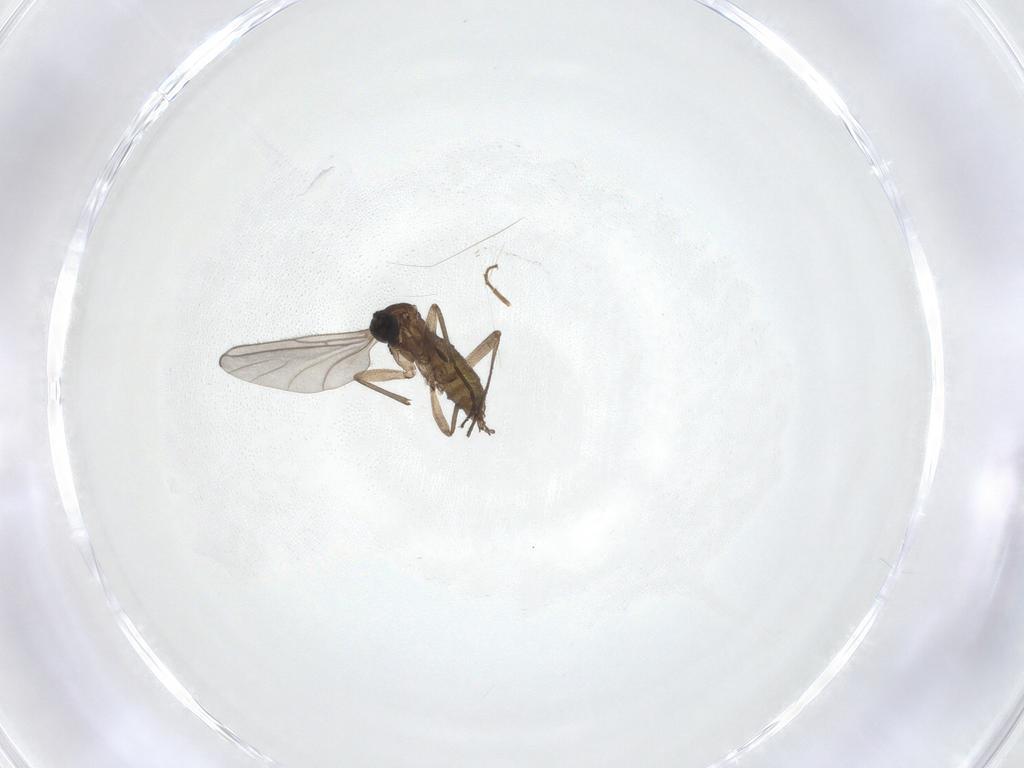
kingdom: Animalia
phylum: Arthropoda
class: Insecta
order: Diptera
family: Sciaridae
